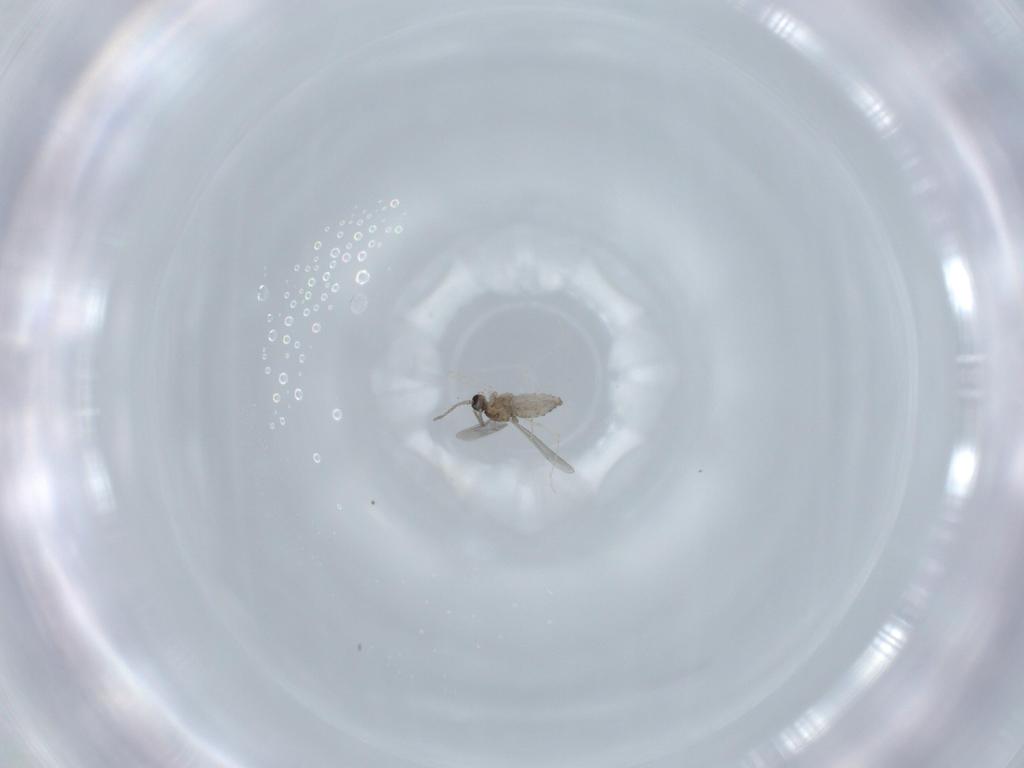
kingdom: Animalia
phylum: Arthropoda
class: Insecta
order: Diptera
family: Cecidomyiidae
